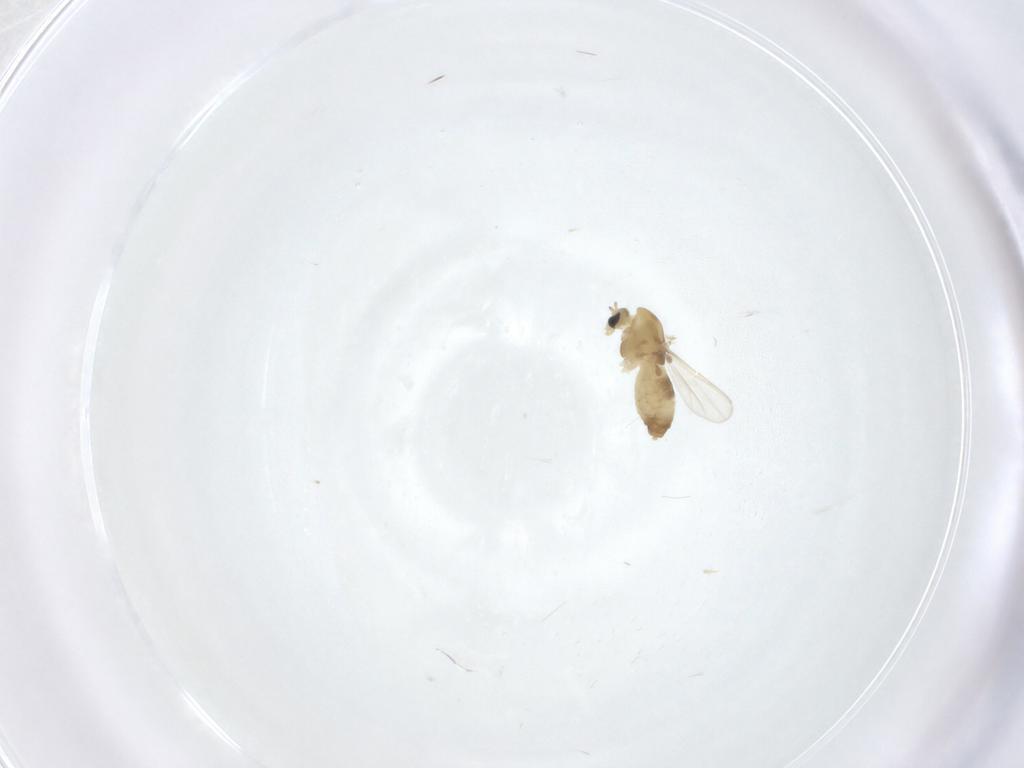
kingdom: Animalia
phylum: Arthropoda
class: Insecta
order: Diptera
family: Chironomidae
